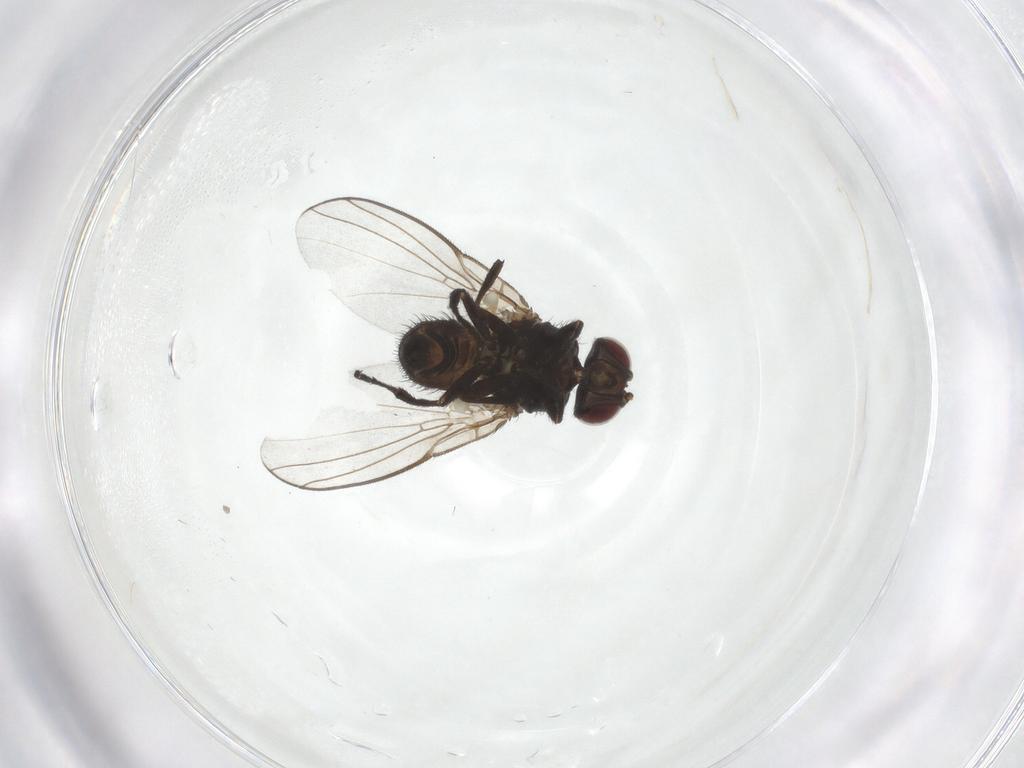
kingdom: Animalia
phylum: Arthropoda
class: Insecta
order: Diptera
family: Agromyzidae
